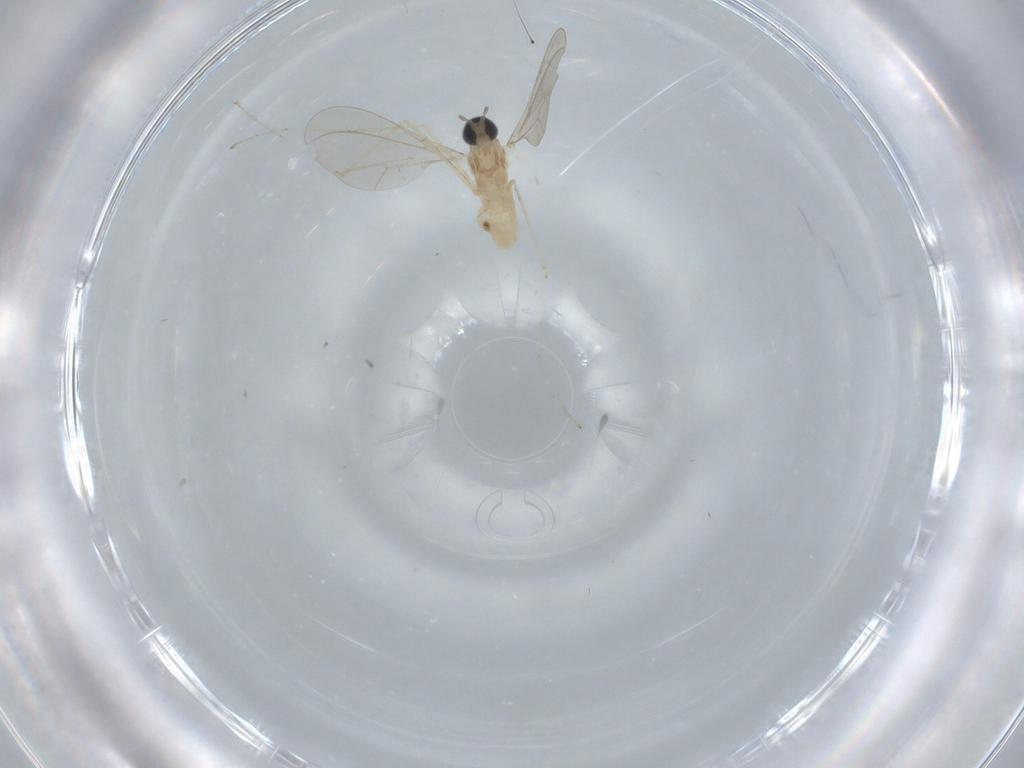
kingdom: Animalia
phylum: Arthropoda
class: Insecta
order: Diptera
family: Cecidomyiidae
